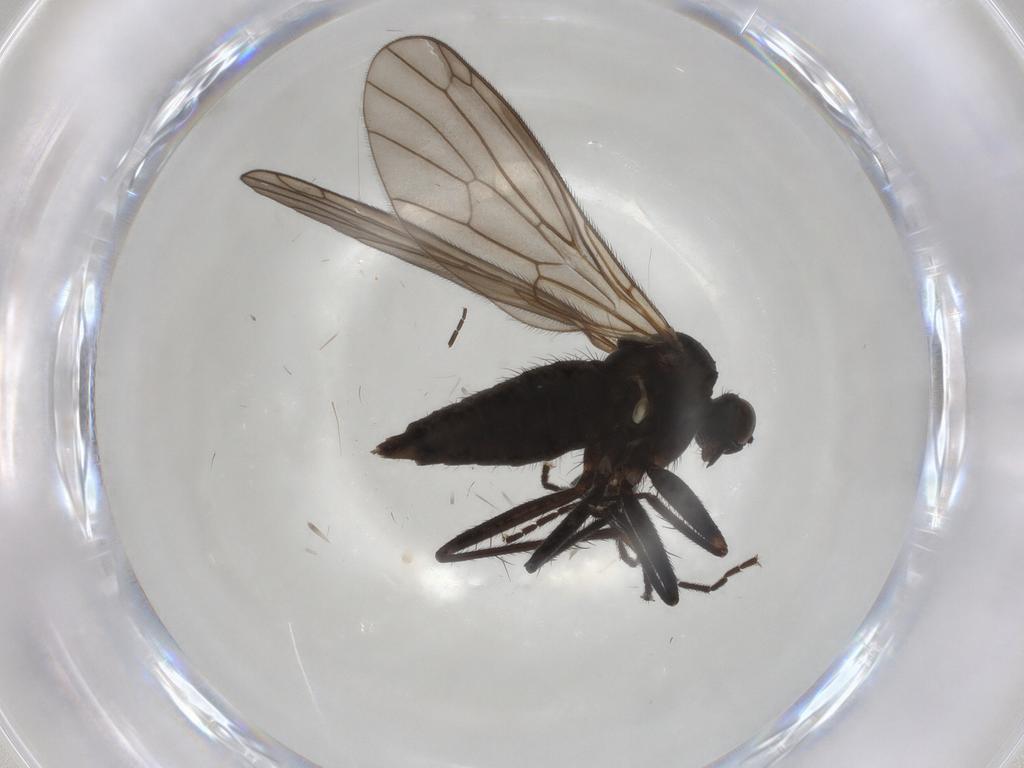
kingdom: Animalia
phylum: Arthropoda
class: Insecta
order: Diptera
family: Empididae
